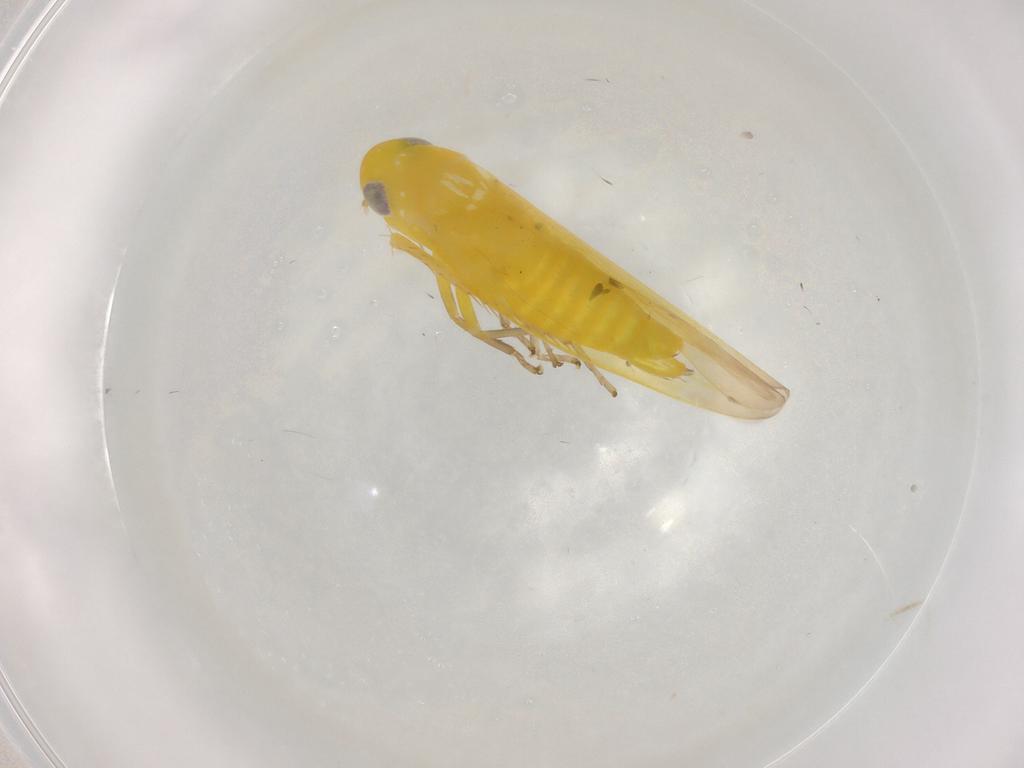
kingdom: Animalia
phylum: Arthropoda
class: Insecta
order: Hemiptera
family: Cicadellidae
